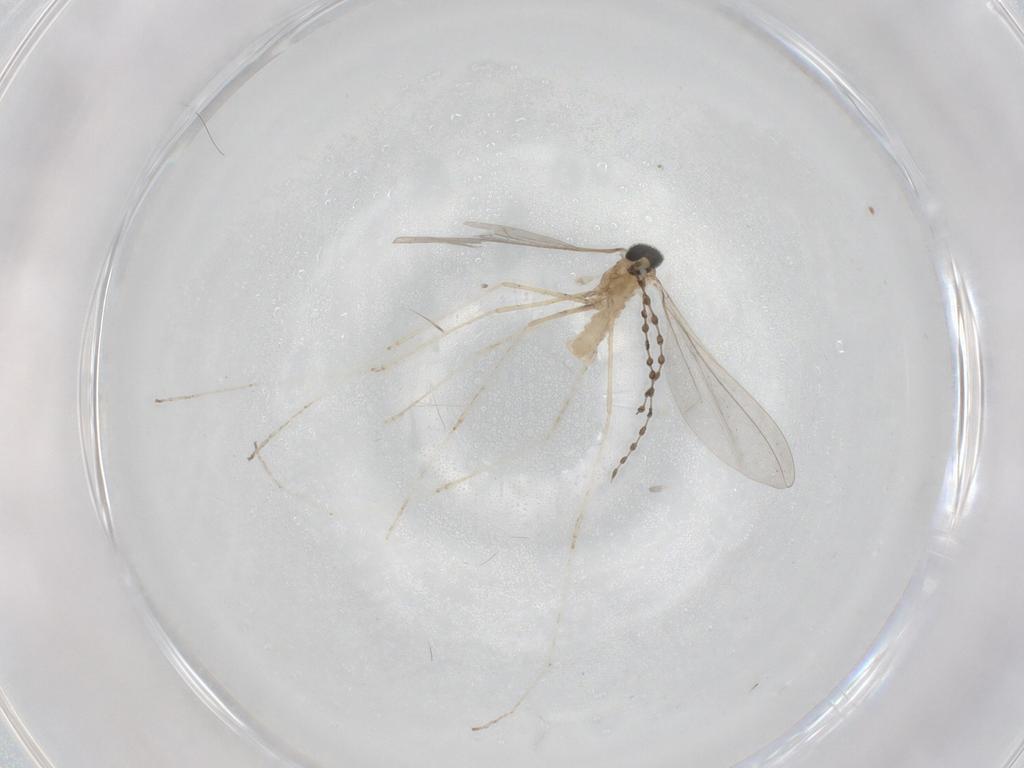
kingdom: Animalia
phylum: Arthropoda
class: Insecta
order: Diptera
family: Cecidomyiidae
